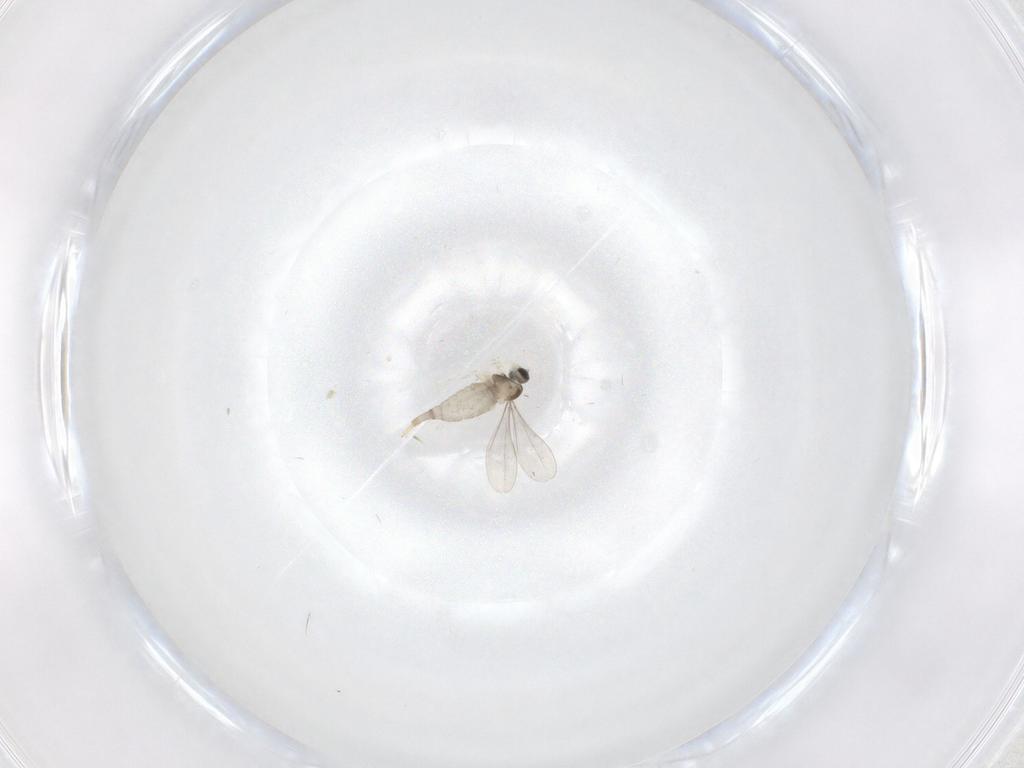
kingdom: Animalia
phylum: Arthropoda
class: Insecta
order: Diptera
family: Cecidomyiidae
